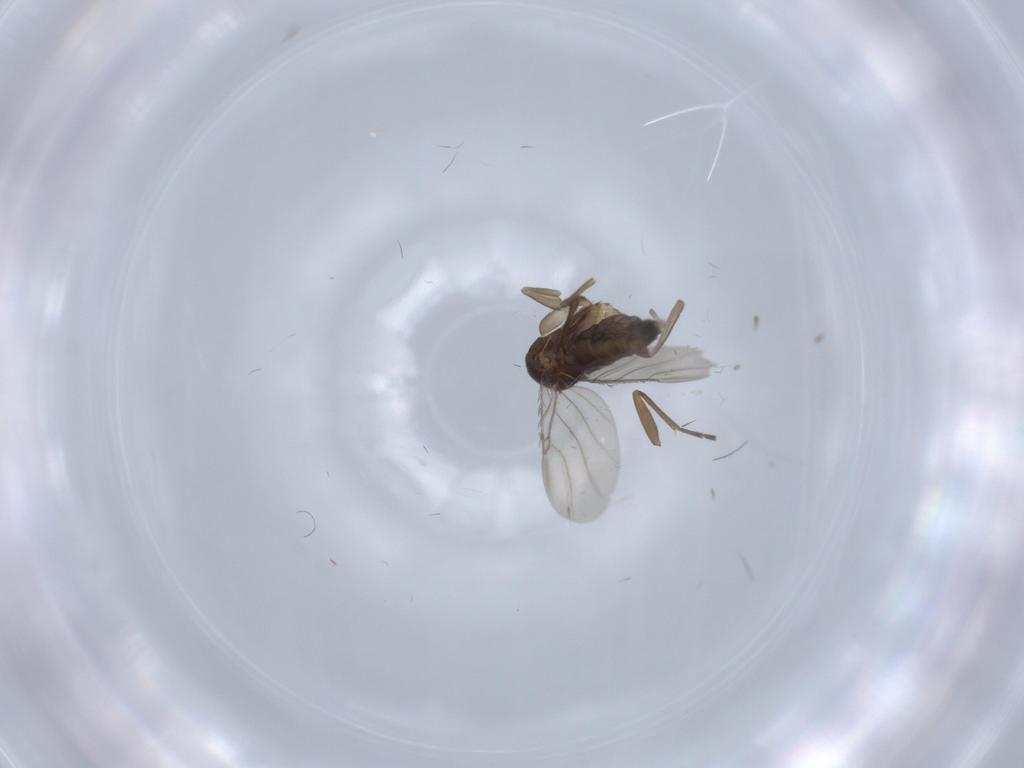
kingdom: Animalia
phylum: Arthropoda
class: Insecta
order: Diptera
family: Phoridae
